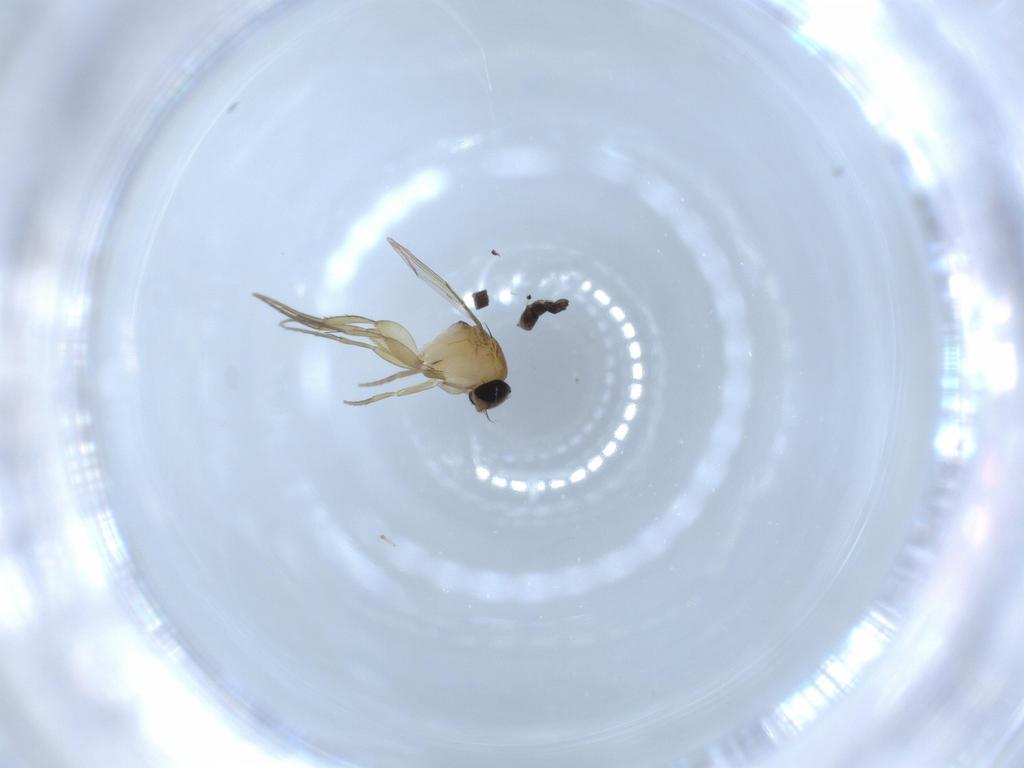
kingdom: Animalia
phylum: Arthropoda
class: Insecta
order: Diptera
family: Chironomidae
